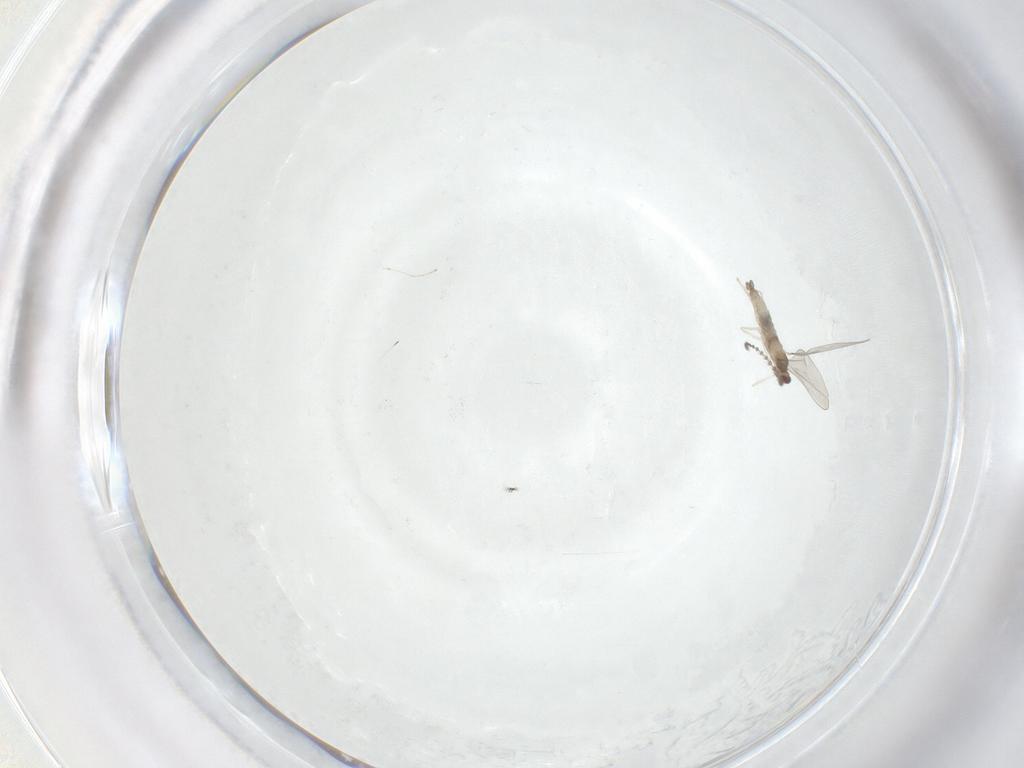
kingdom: Animalia
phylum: Arthropoda
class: Insecta
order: Diptera
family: Cecidomyiidae
